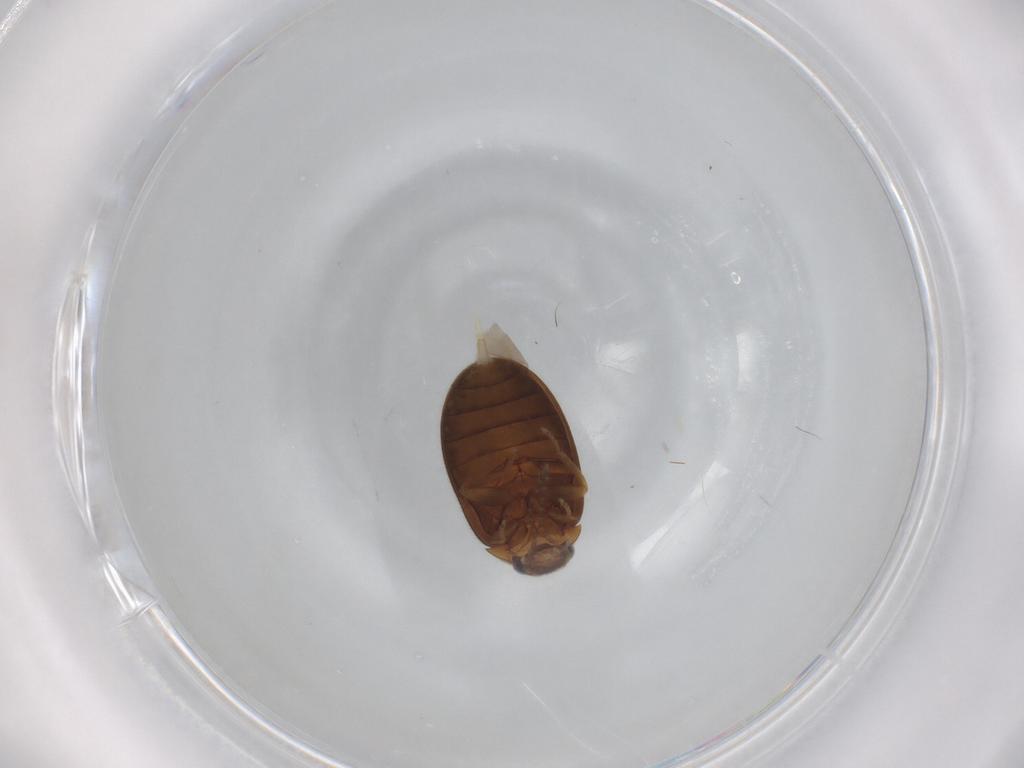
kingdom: Animalia
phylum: Arthropoda
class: Insecta
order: Coleoptera
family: Scirtidae
